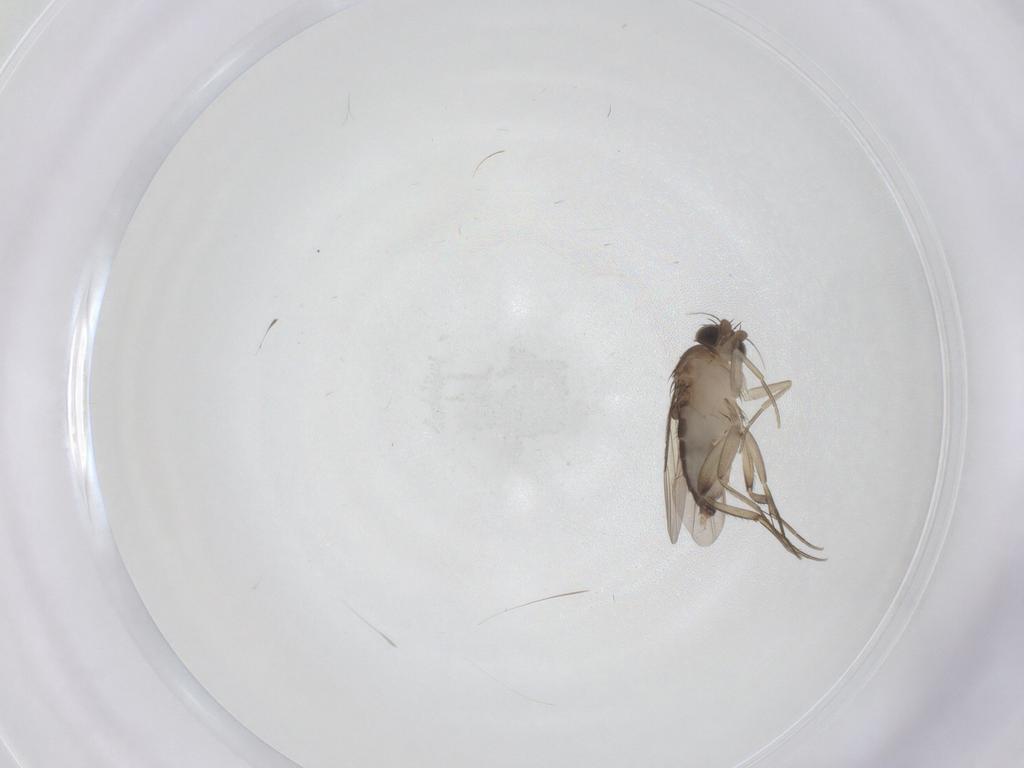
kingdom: Animalia
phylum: Arthropoda
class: Insecta
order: Diptera
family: Phoridae
